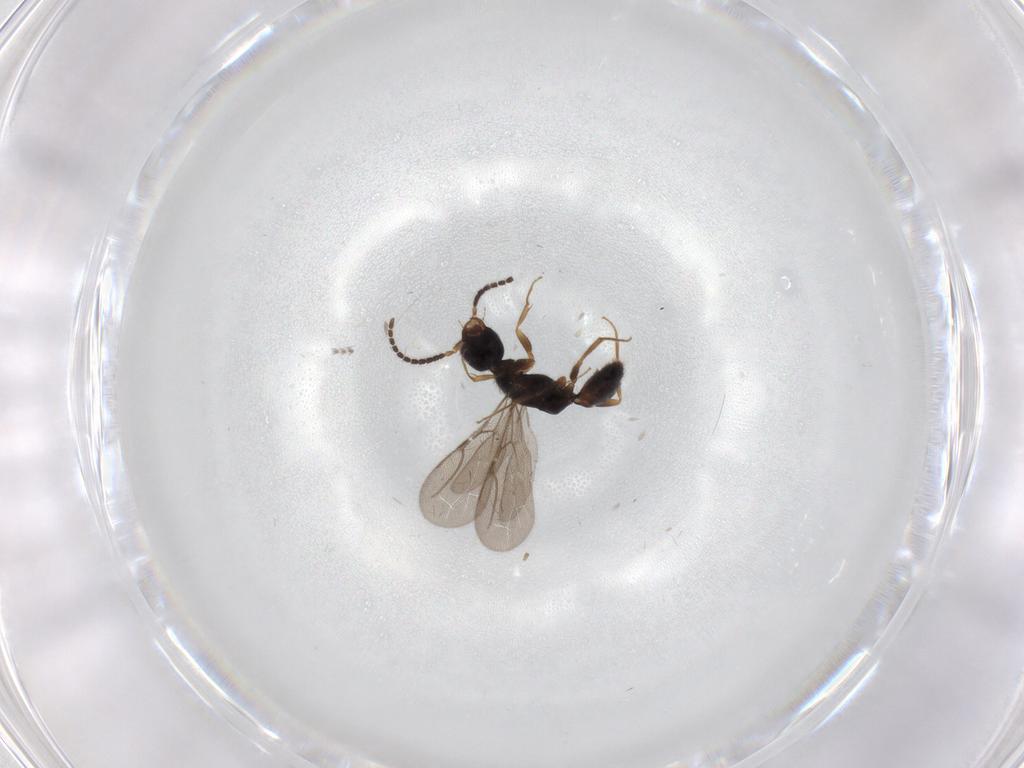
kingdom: Animalia
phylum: Arthropoda
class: Insecta
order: Hymenoptera
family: Bethylidae
